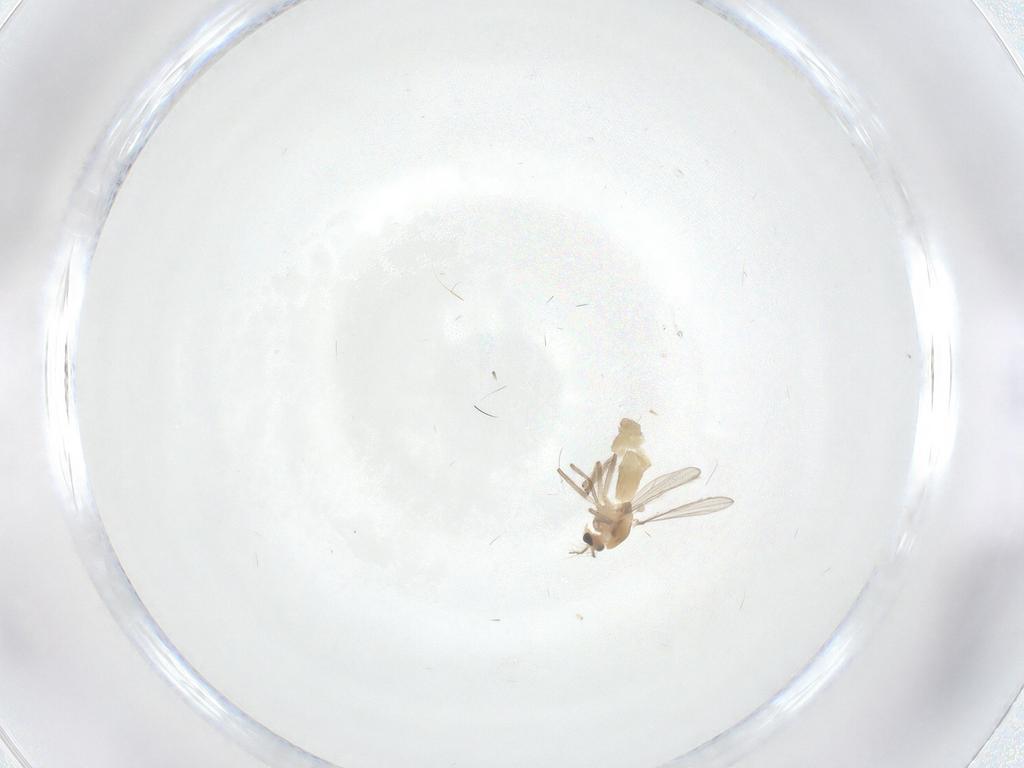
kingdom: Animalia
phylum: Arthropoda
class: Insecta
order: Diptera
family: Chironomidae
